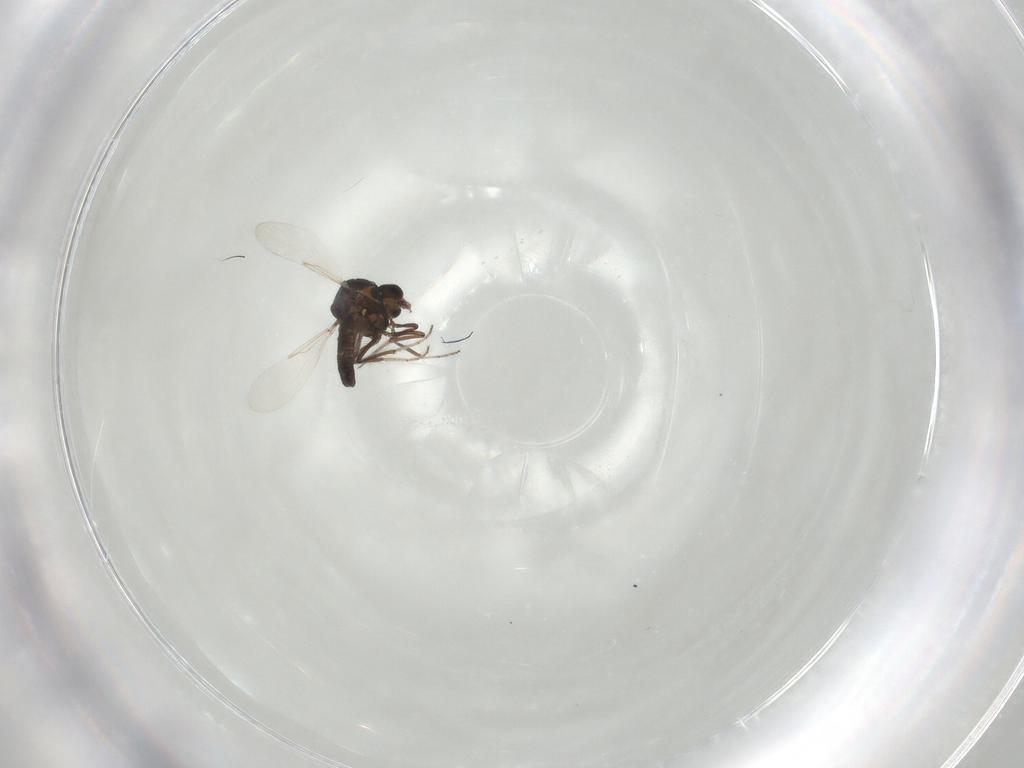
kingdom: Animalia
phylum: Arthropoda
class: Insecta
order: Diptera
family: Ceratopogonidae
